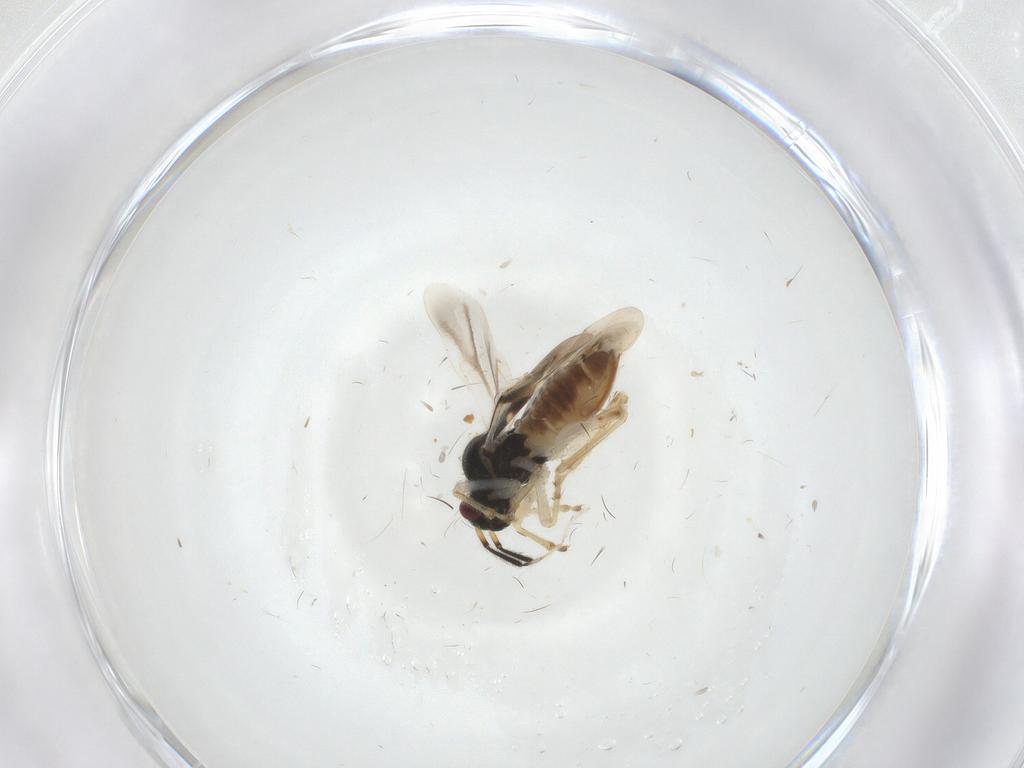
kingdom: Animalia
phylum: Arthropoda
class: Insecta
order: Hemiptera
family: Miridae
